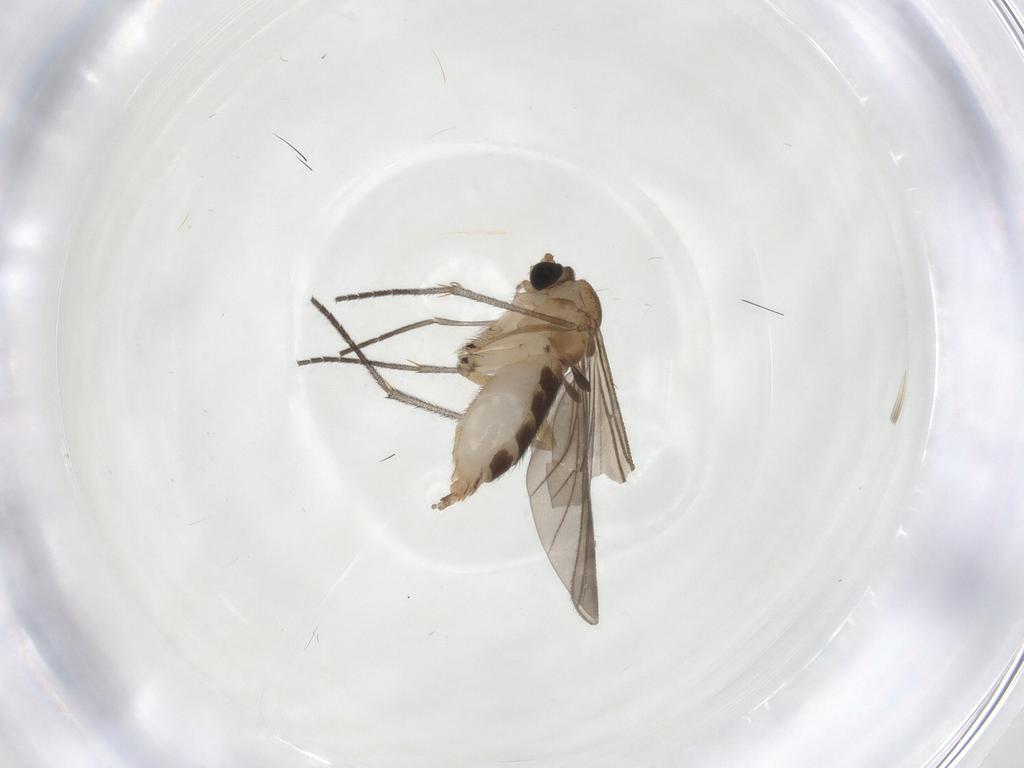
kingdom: Animalia
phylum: Arthropoda
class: Insecta
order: Diptera
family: Sciaridae
